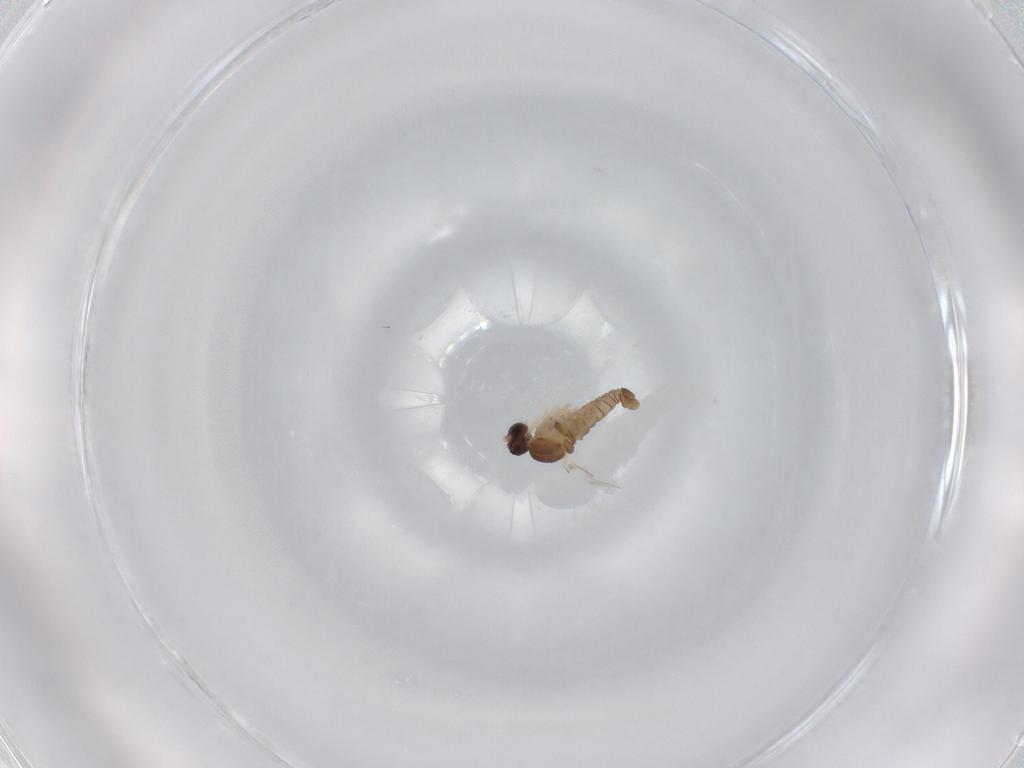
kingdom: Animalia
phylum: Arthropoda
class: Insecta
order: Diptera
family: Cecidomyiidae
